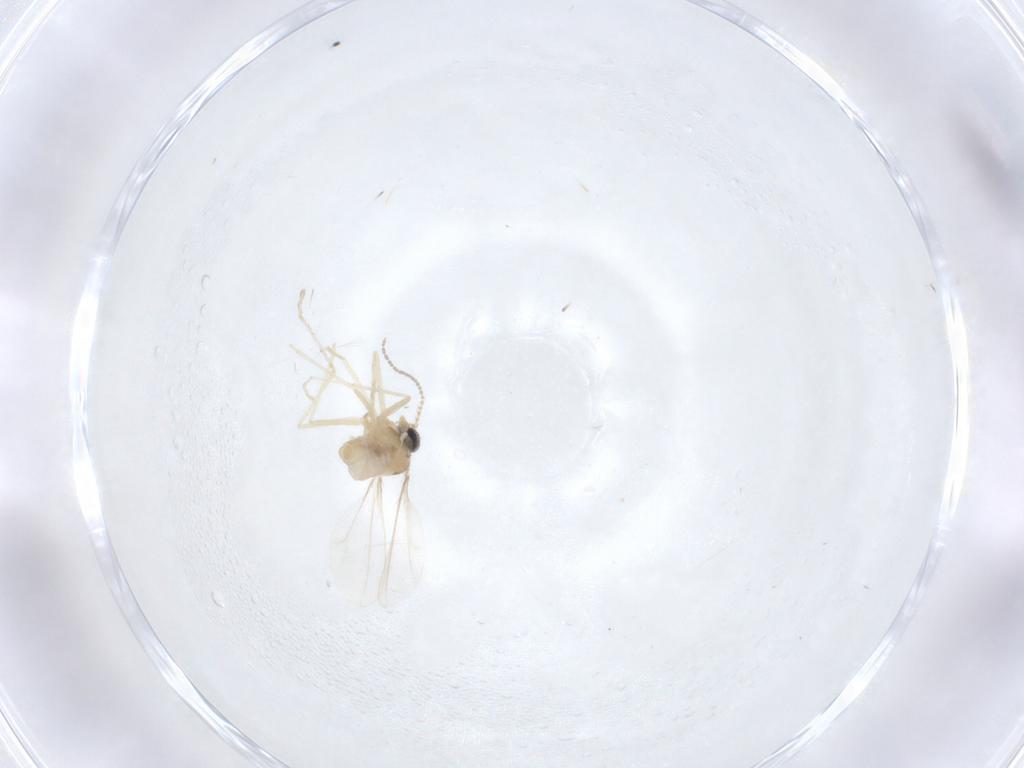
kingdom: Animalia
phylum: Arthropoda
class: Insecta
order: Diptera
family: Cecidomyiidae
